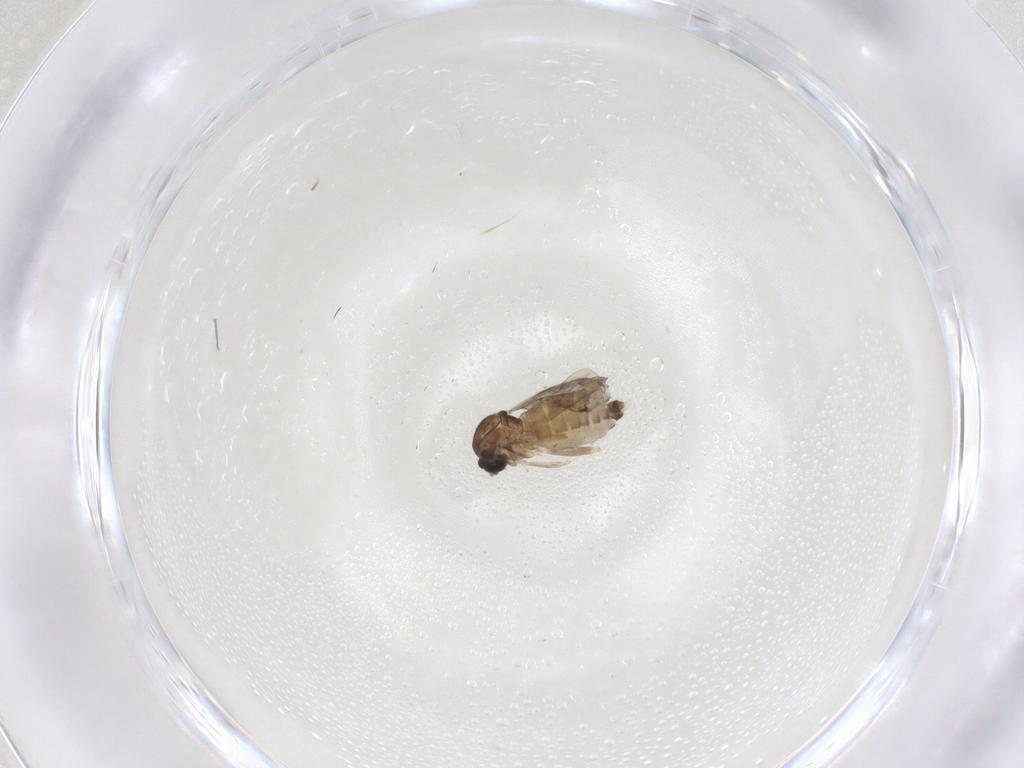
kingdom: Animalia
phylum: Arthropoda
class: Insecta
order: Diptera
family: Ceratopogonidae
